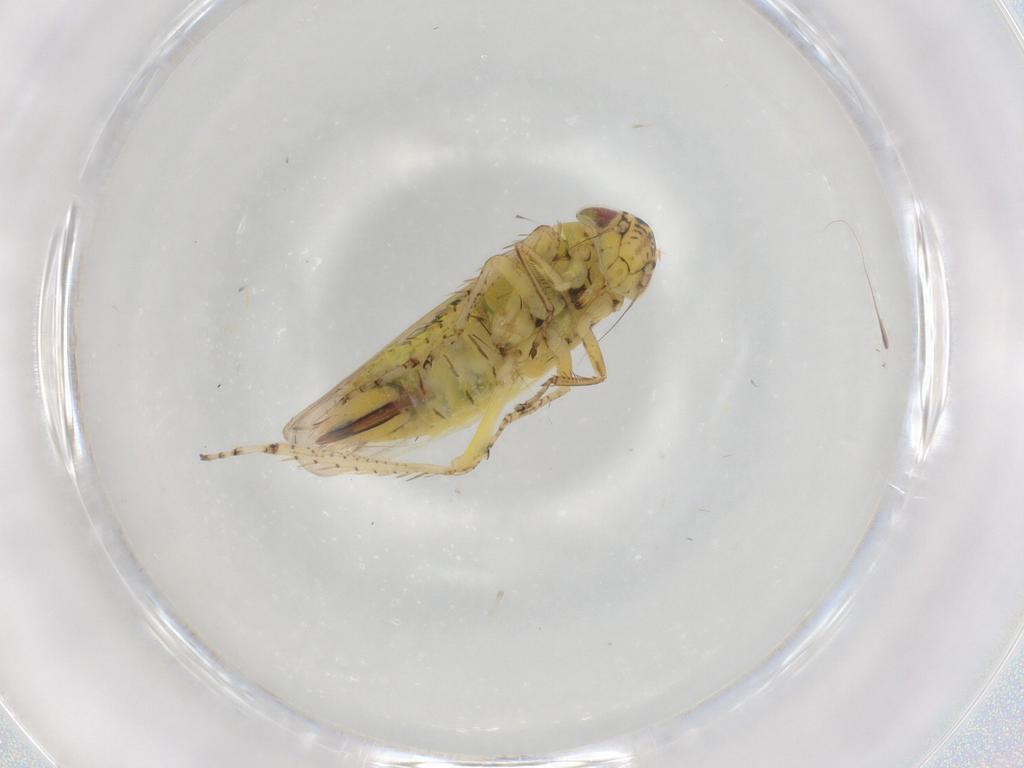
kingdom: Animalia
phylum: Arthropoda
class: Insecta
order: Hemiptera
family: Cicadellidae
